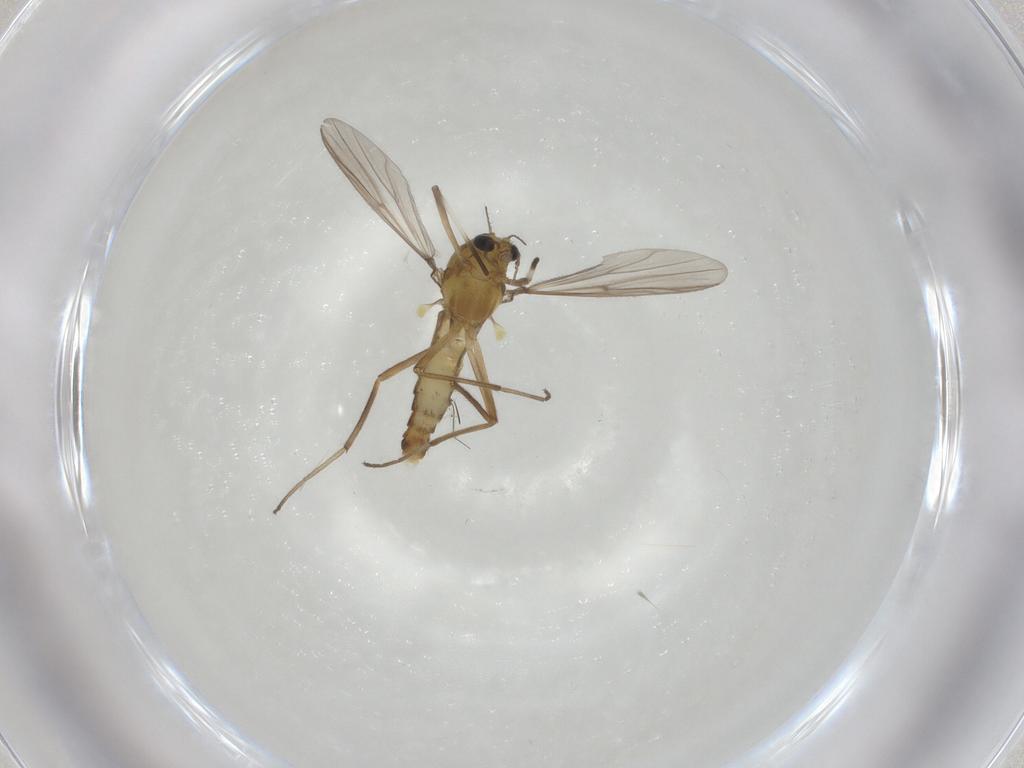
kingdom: Animalia
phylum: Arthropoda
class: Insecta
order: Diptera
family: Chironomidae
